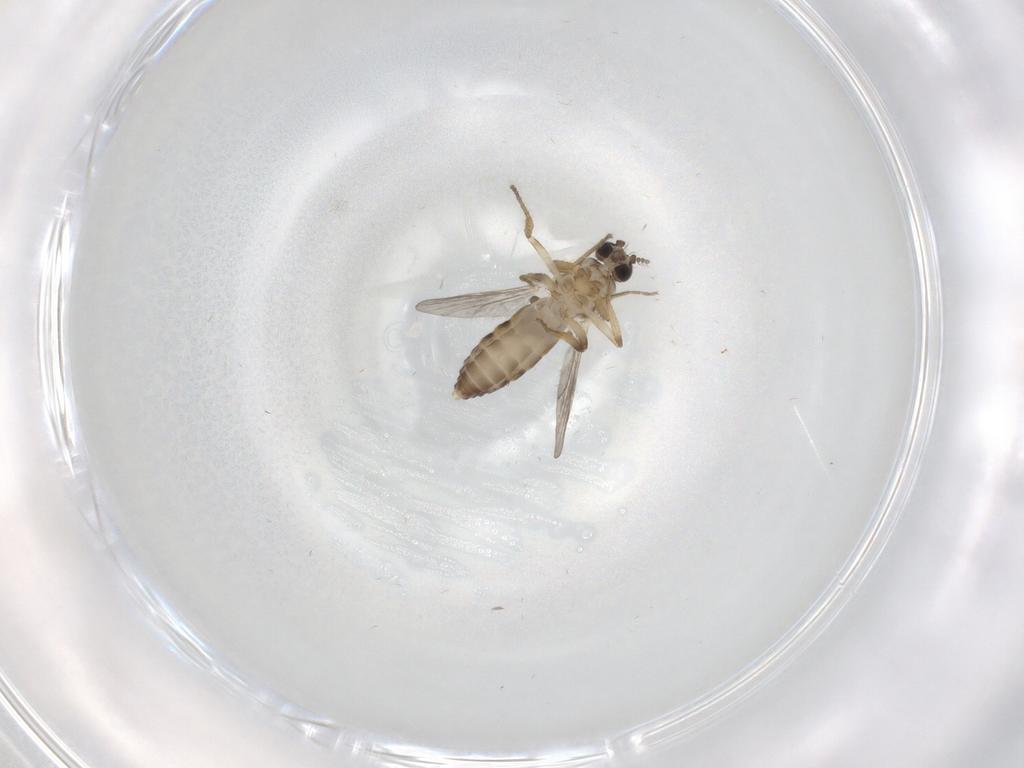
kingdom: Animalia
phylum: Arthropoda
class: Insecta
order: Diptera
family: Ceratopogonidae
